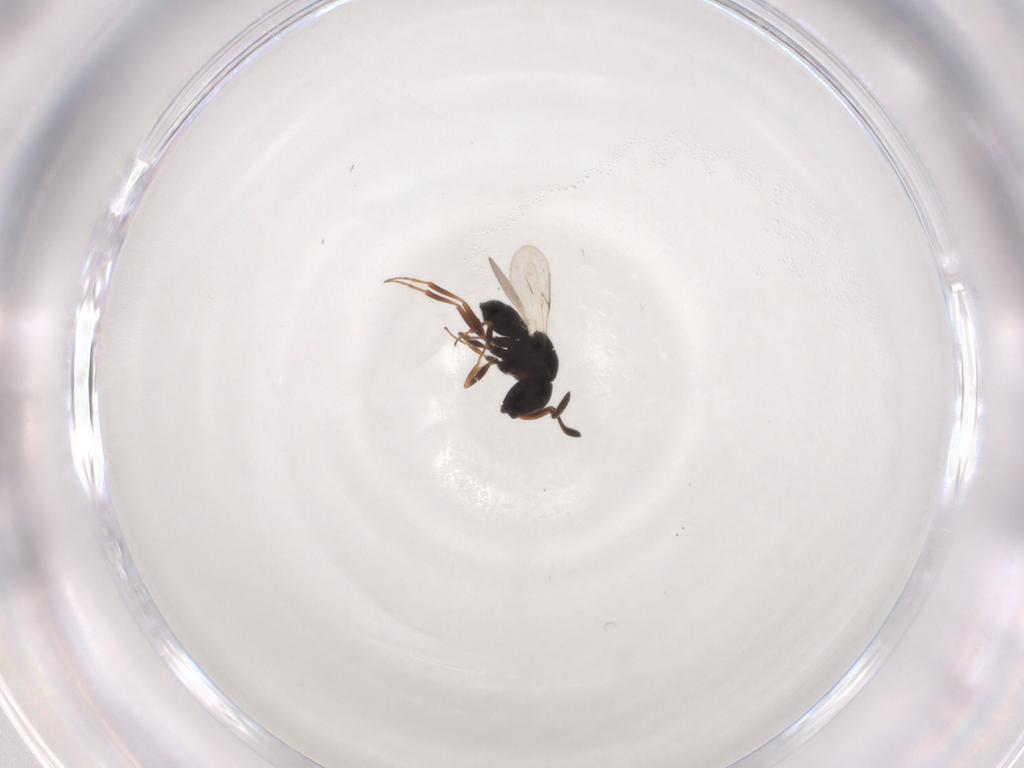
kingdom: Animalia
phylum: Arthropoda
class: Insecta
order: Hymenoptera
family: Scelionidae
